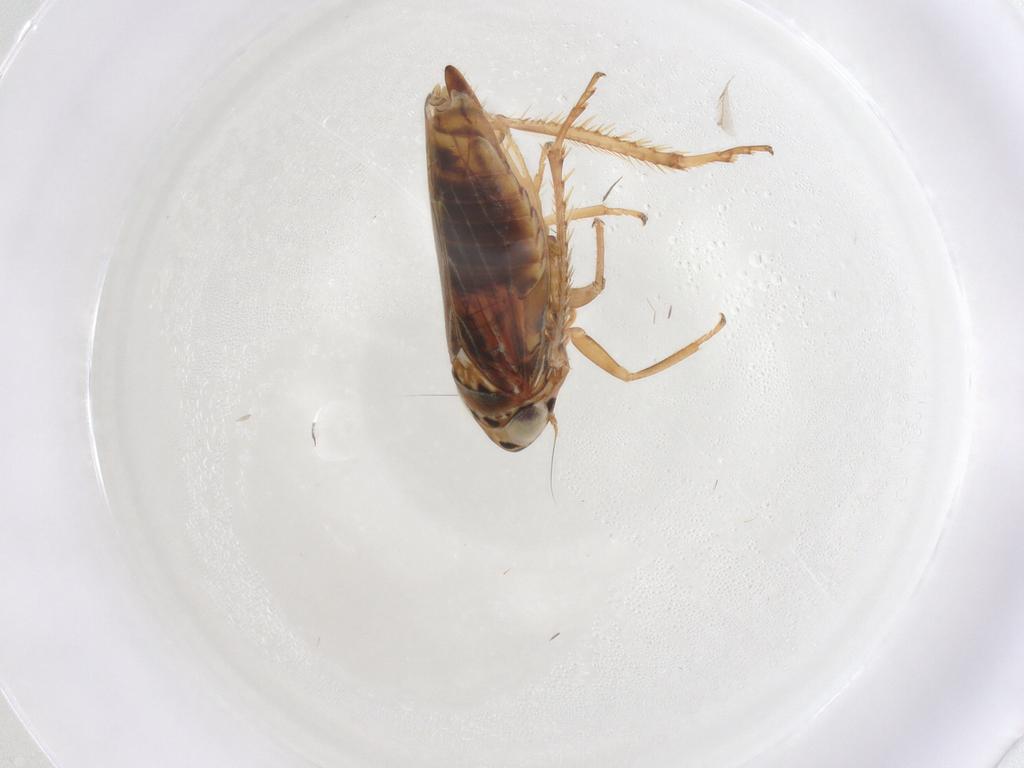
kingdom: Animalia
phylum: Arthropoda
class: Insecta
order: Hemiptera
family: Cicadellidae
